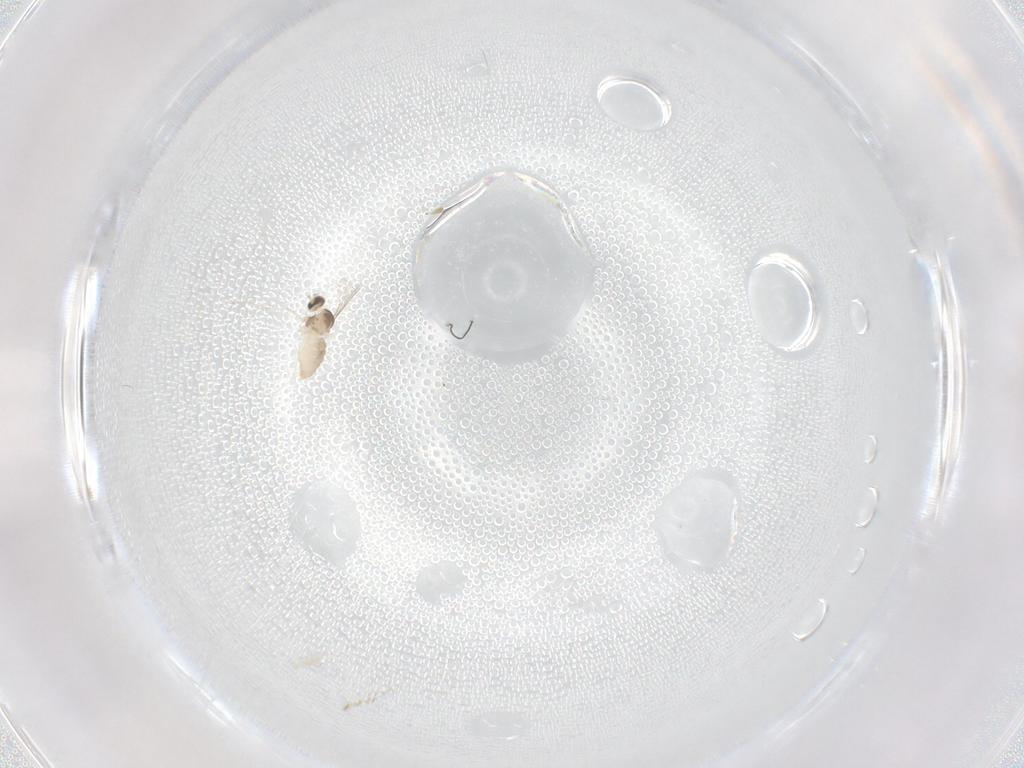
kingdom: Animalia
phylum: Arthropoda
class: Insecta
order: Diptera
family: Cecidomyiidae
